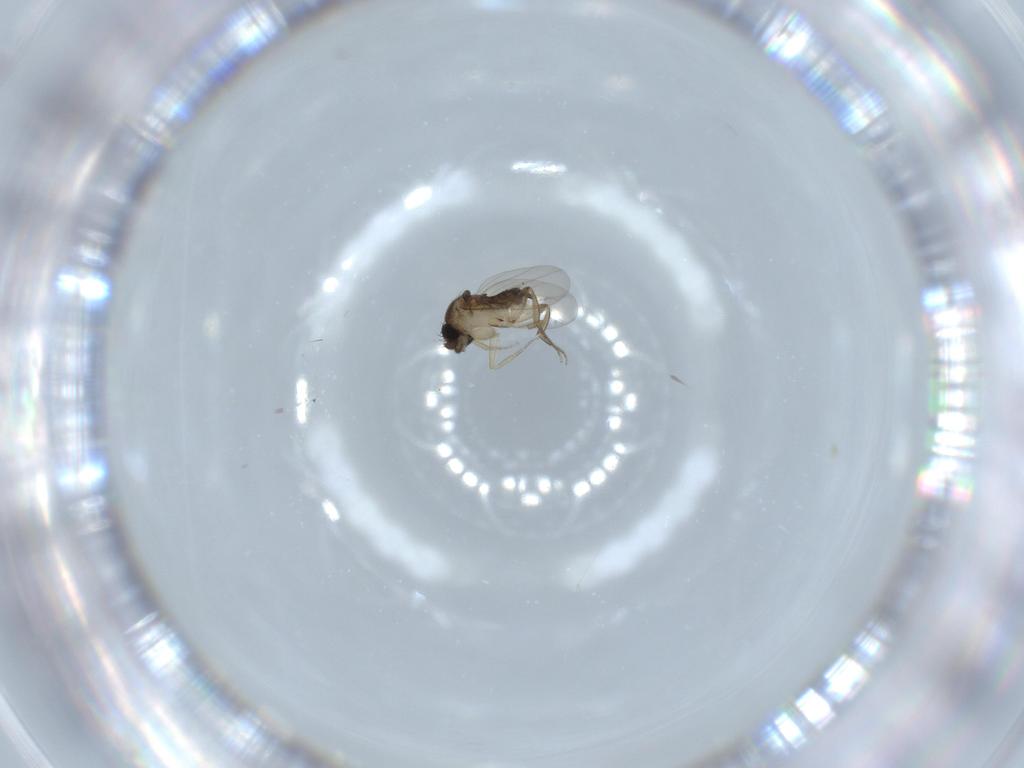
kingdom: Animalia
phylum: Arthropoda
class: Insecta
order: Diptera
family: Phoridae
